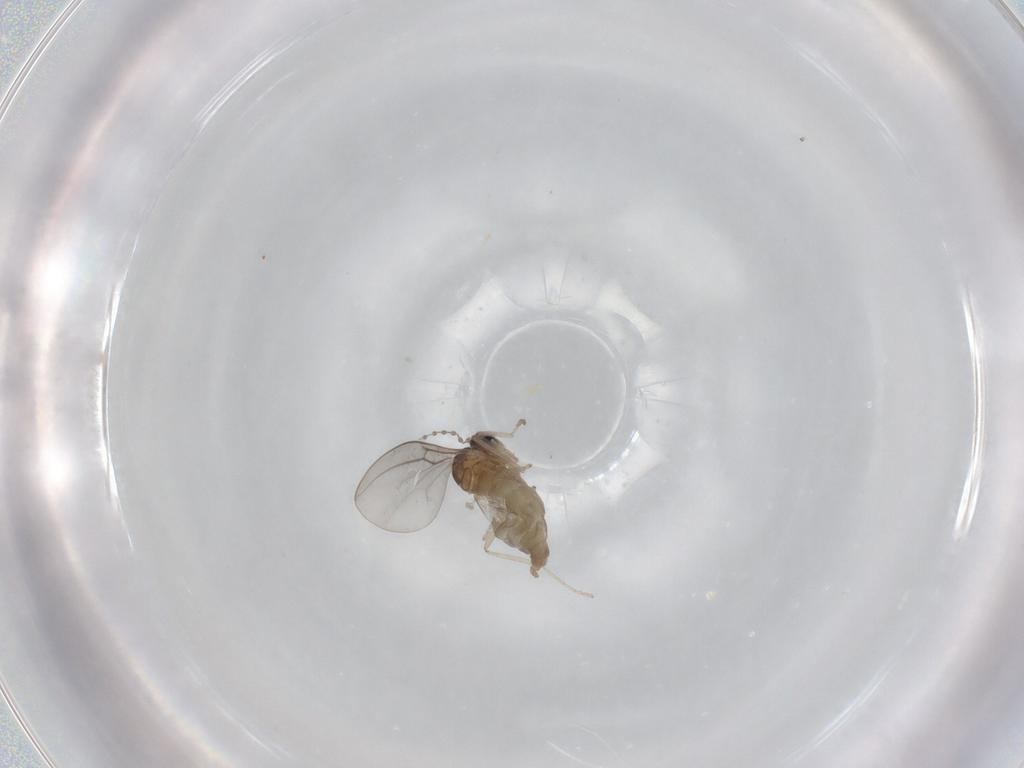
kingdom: Animalia
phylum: Arthropoda
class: Insecta
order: Diptera
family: Cecidomyiidae
